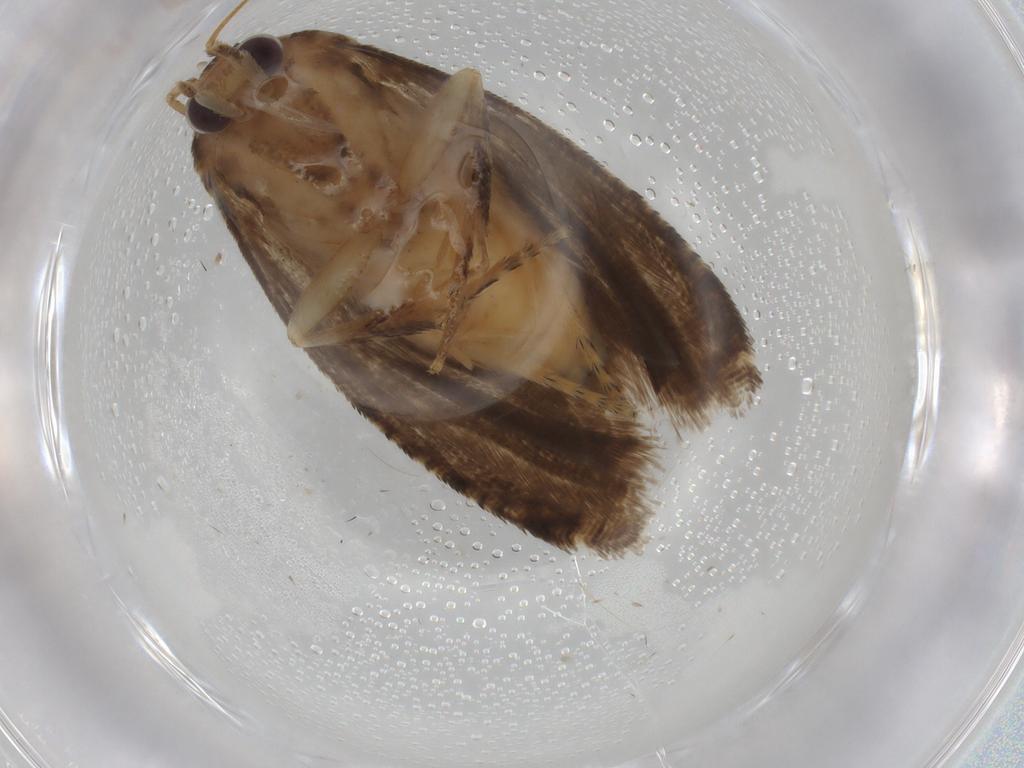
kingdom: Animalia
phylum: Arthropoda
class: Insecta
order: Lepidoptera
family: Tortricidae
